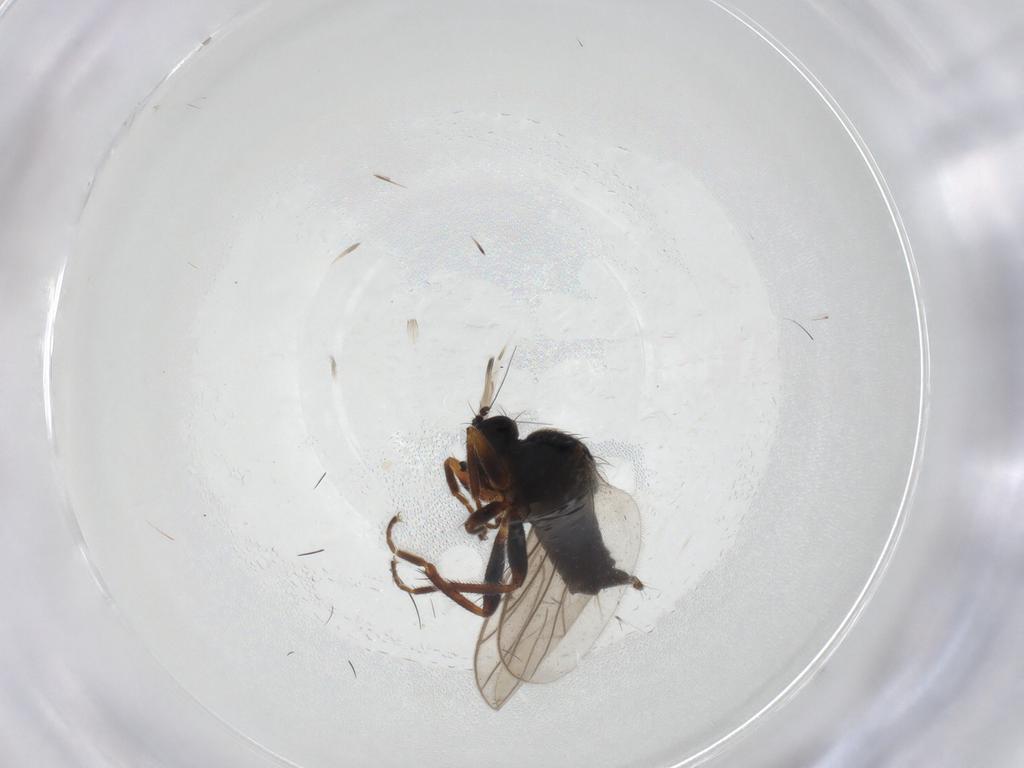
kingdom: Animalia
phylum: Arthropoda
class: Insecta
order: Diptera
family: Hybotidae
